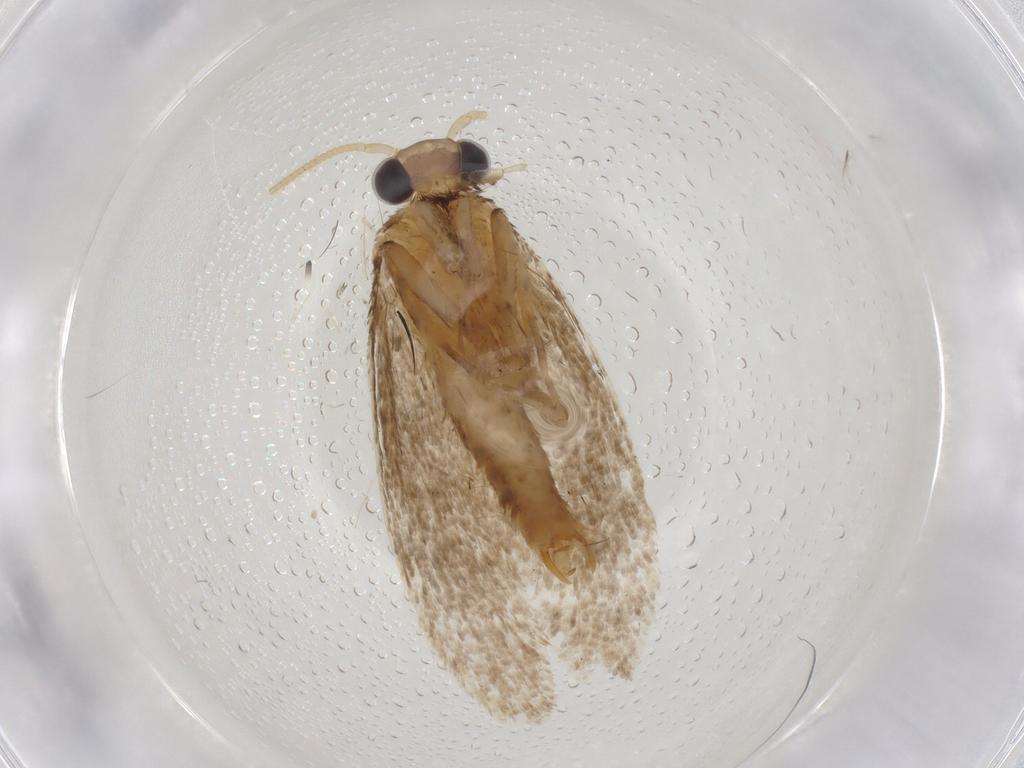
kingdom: Animalia
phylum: Arthropoda
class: Insecta
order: Lepidoptera
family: Tineidae
